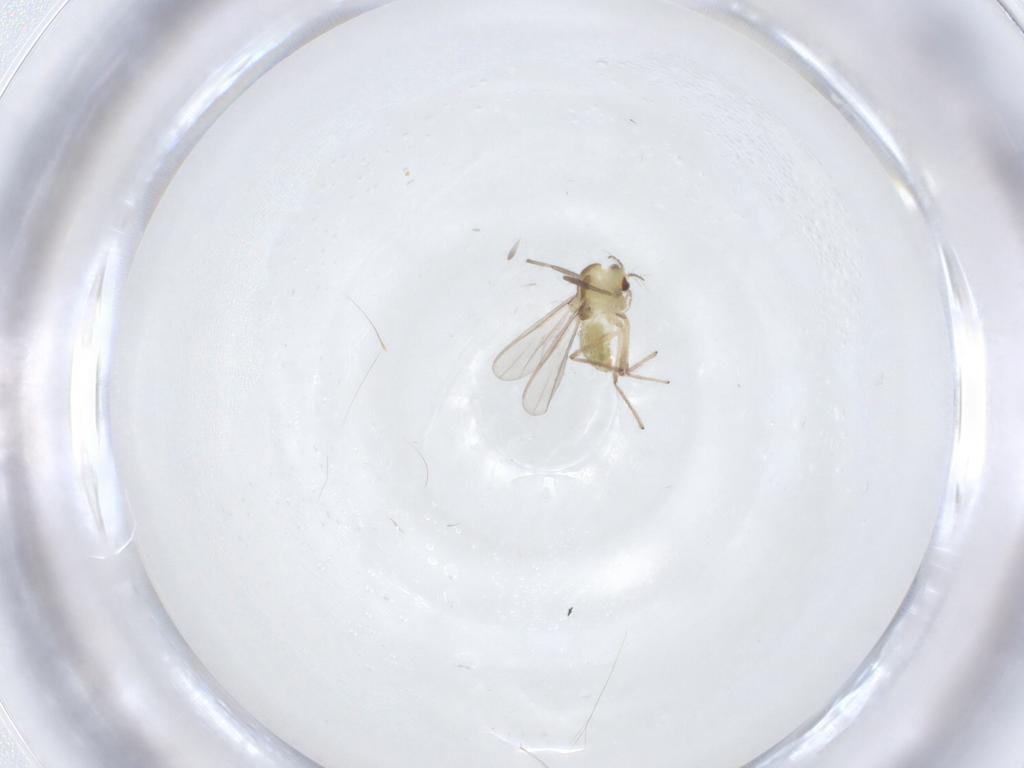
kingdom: Animalia
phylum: Arthropoda
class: Insecta
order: Diptera
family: Chironomidae
